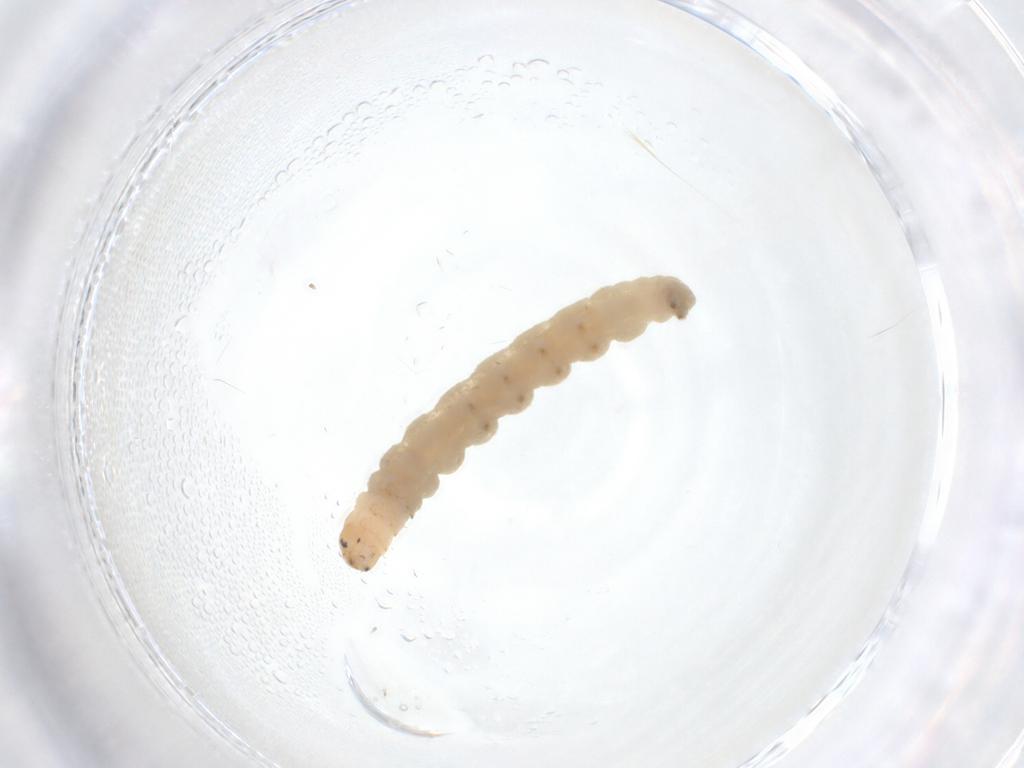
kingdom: Animalia
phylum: Arthropoda
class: Insecta
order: Lepidoptera
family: Gelechiidae
